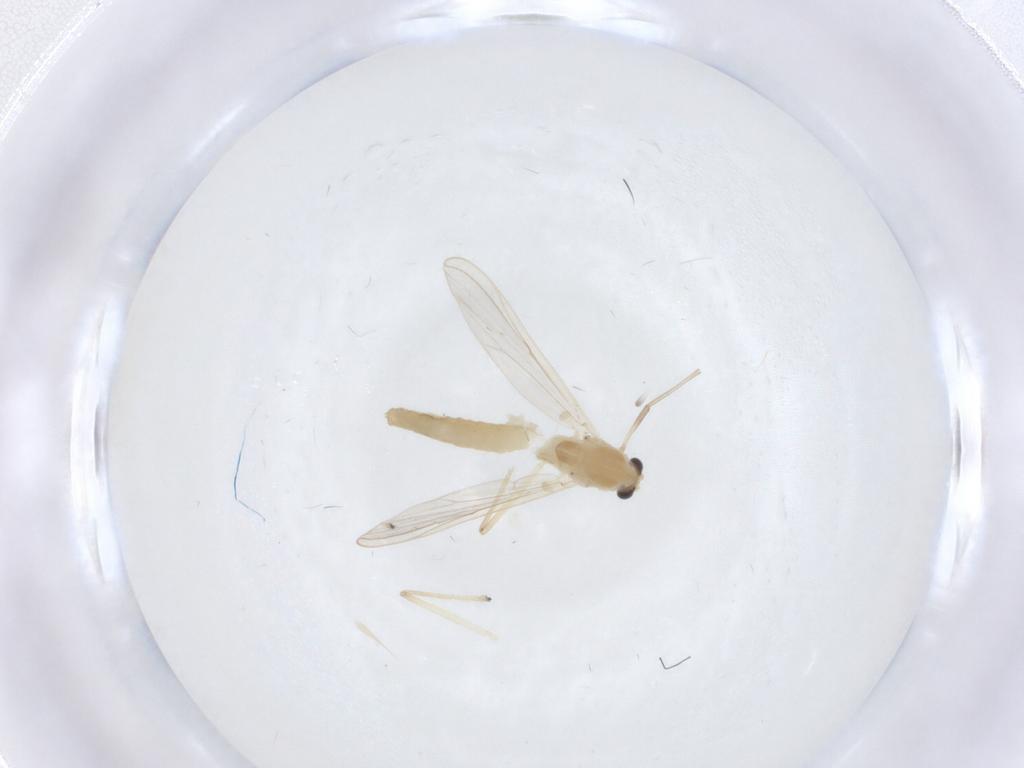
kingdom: Animalia
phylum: Arthropoda
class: Insecta
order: Diptera
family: Chironomidae
